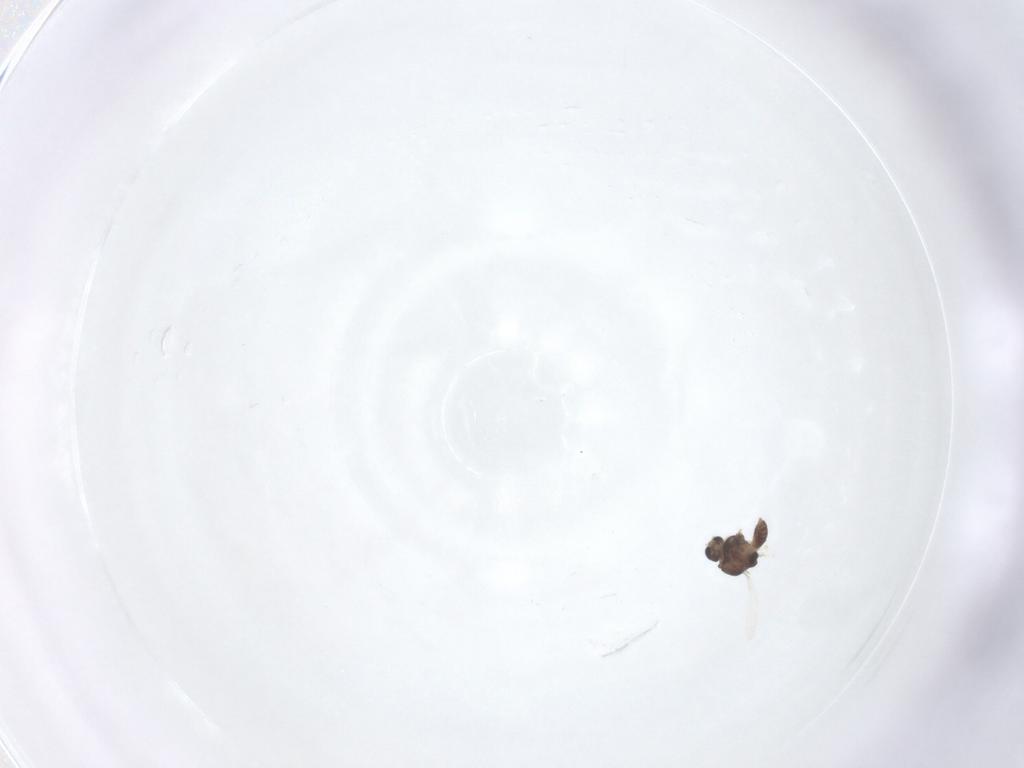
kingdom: Animalia
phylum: Arthropoda
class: Insecta
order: Diptera
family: Chironomidae
